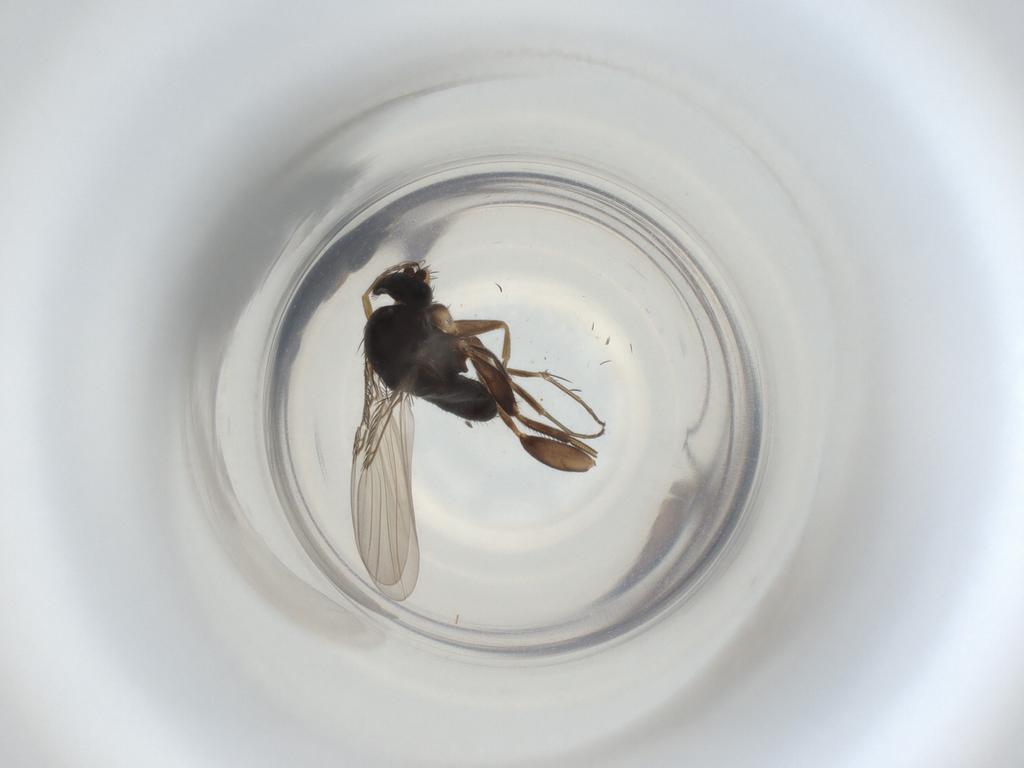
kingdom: Animalia
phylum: Arthropoda
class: Insecta
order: Diptera
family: Phoridae
